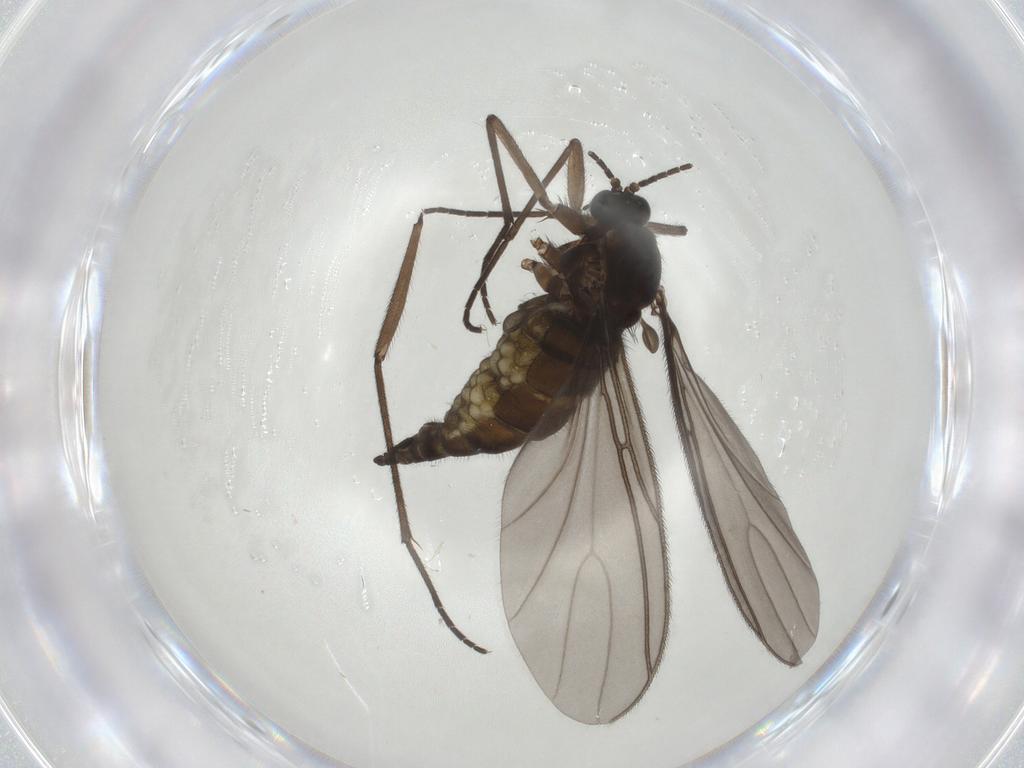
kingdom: Animalia
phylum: Arthropoda
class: Insecta
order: Diptera
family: Sciaridae
